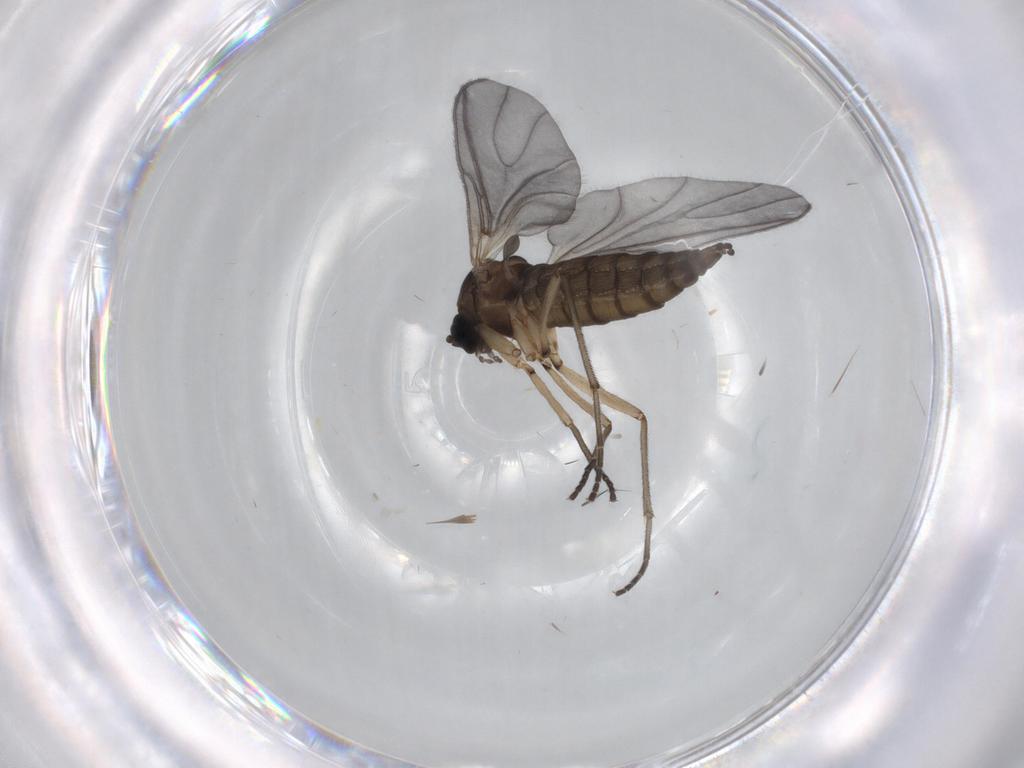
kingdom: Animalia
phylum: Arthropoda
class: Insecta
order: Diptera
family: Sciaridae
